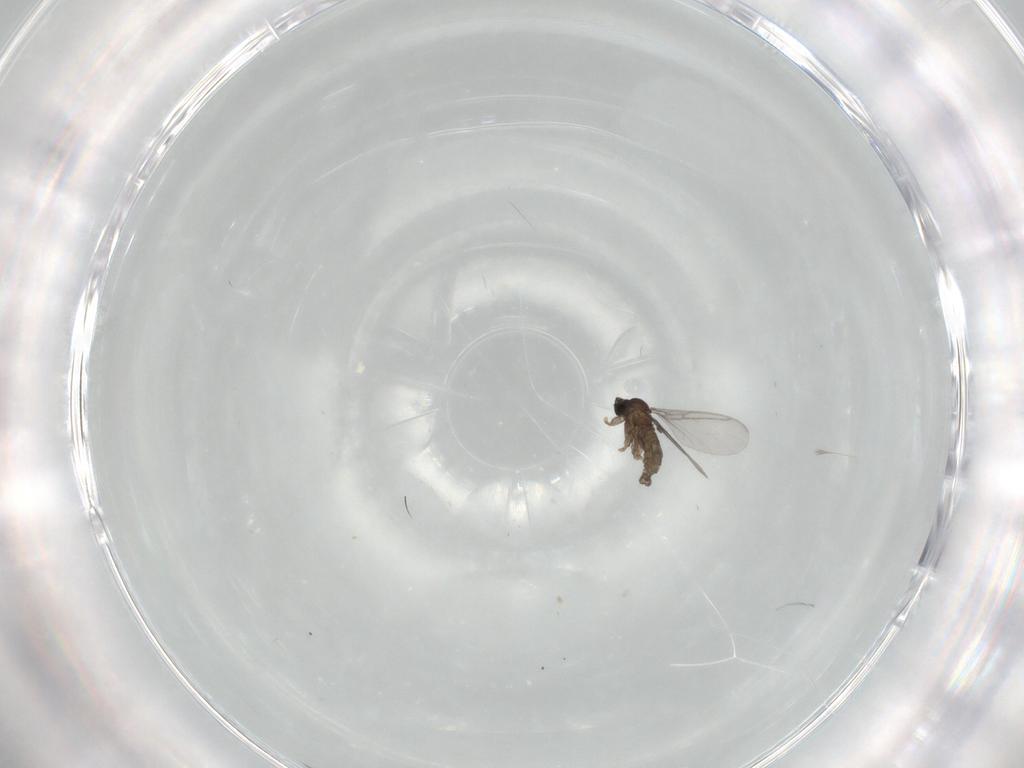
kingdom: Animalia
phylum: Arthropoda
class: Insecta
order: Diptera
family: Sciaridae
